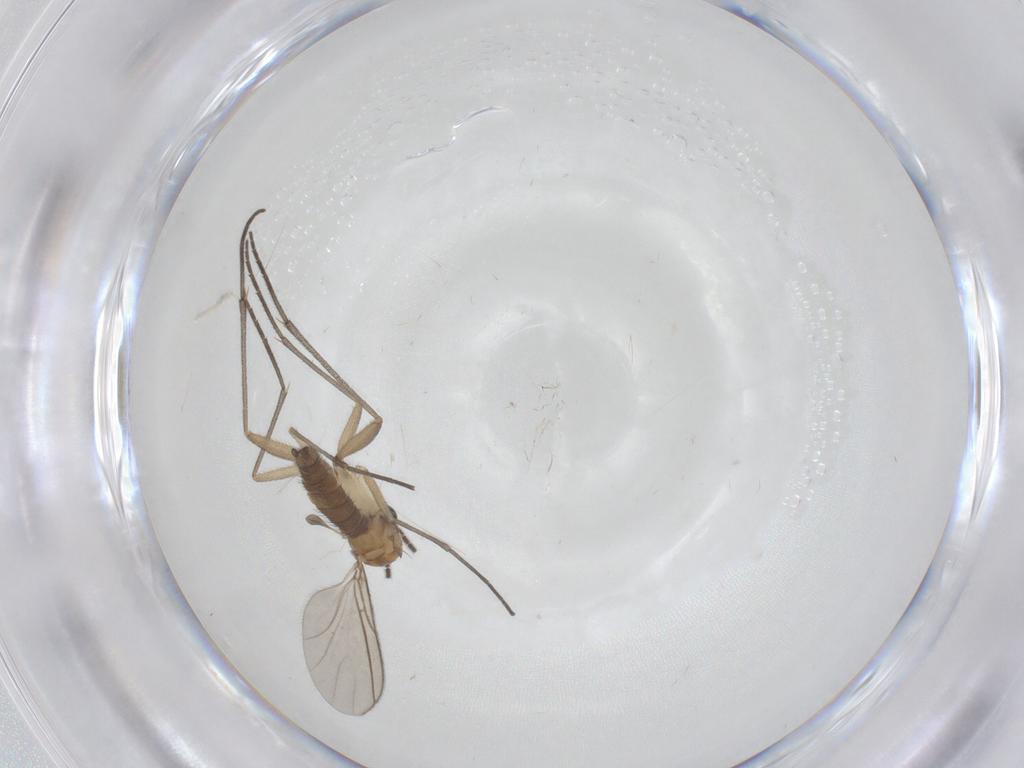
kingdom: Animalia
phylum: Arthropoda
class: Insecta
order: Diptera
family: Sciaridae
